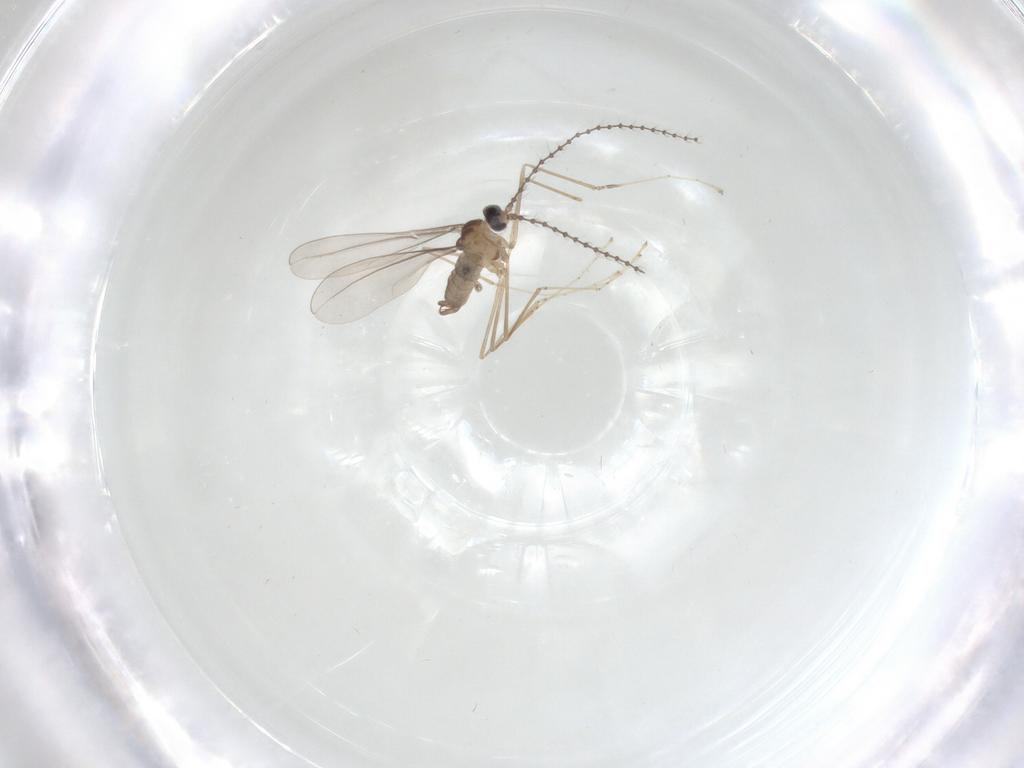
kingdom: Animalia
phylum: Arthropoda
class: Insecta
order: Diptera
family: Cecidomyiidae
